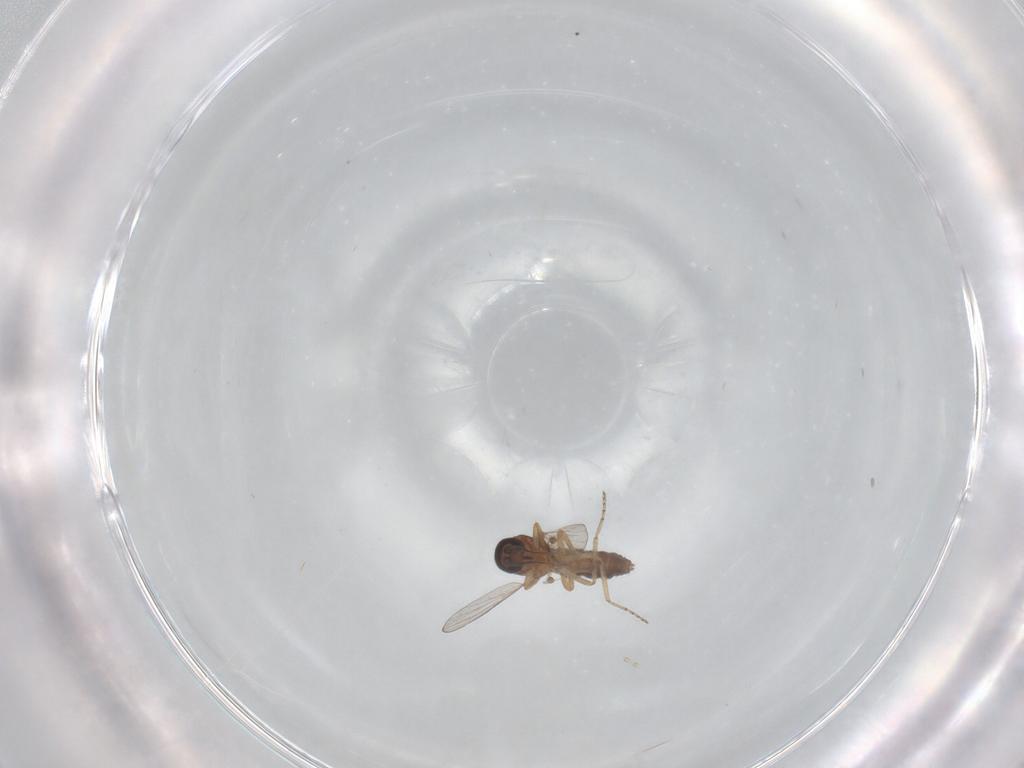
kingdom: Animalia
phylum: Arthropoda
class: Insecta
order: Diptera
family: Ceratopogonidae
